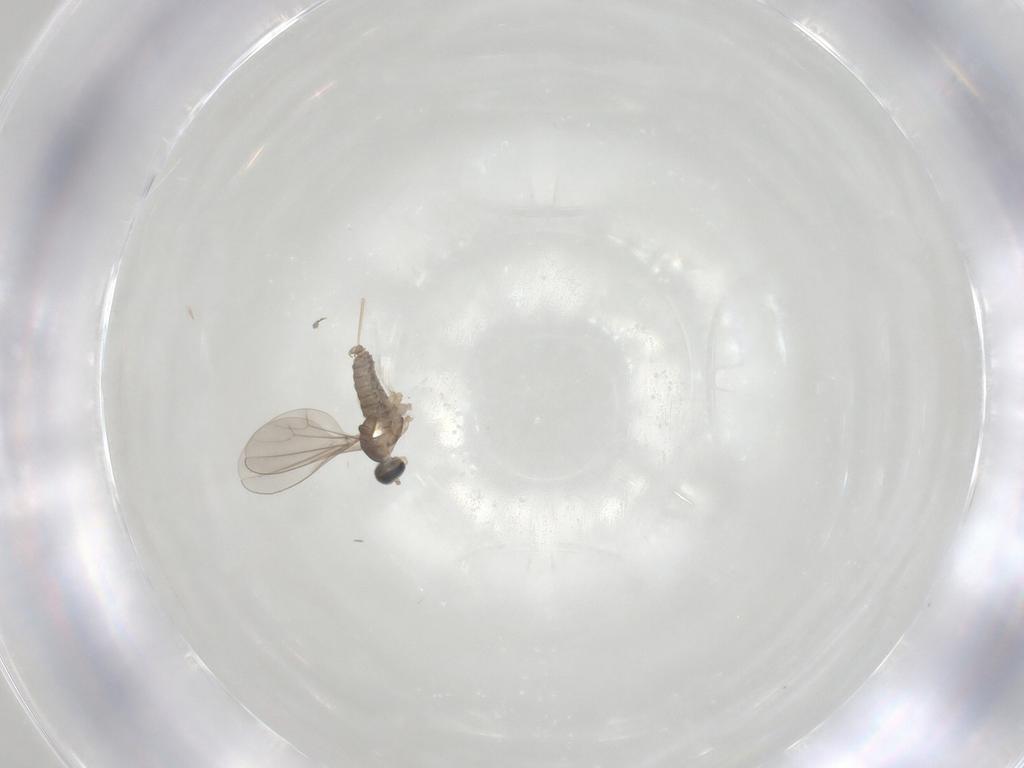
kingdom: Animalia
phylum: Arthropoda
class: Insecta
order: Diptera
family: Cecidomyiidae
